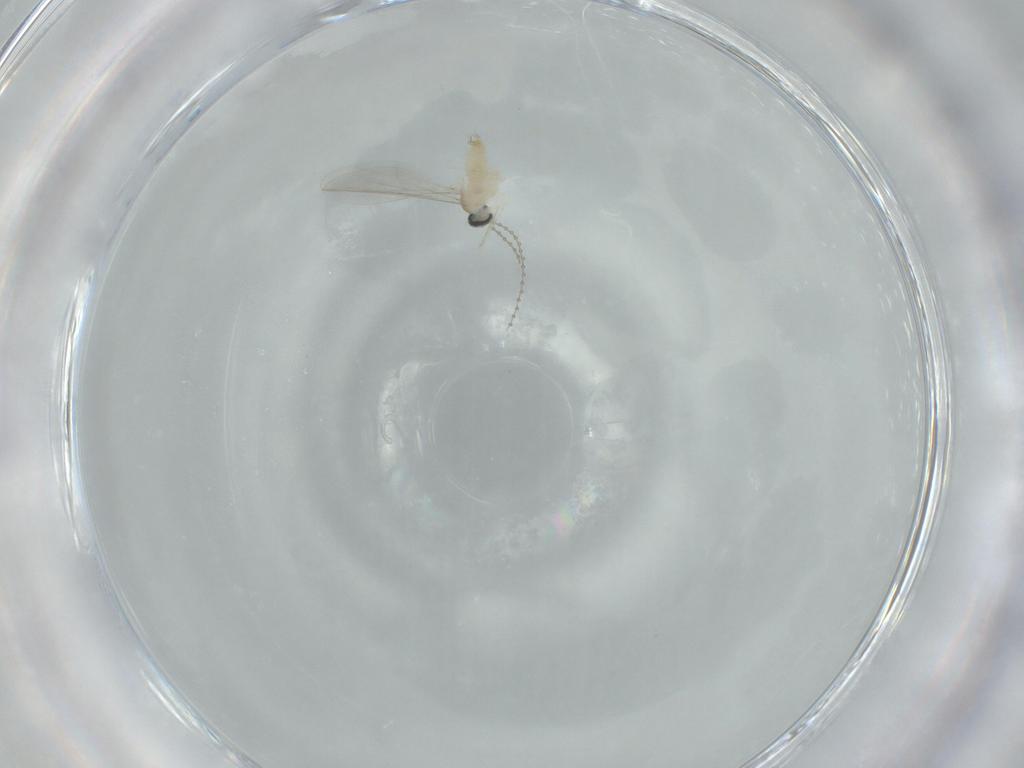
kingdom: Animalia
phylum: Arthropoda
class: Insecta
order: Diptera
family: Cecidomyiidae
